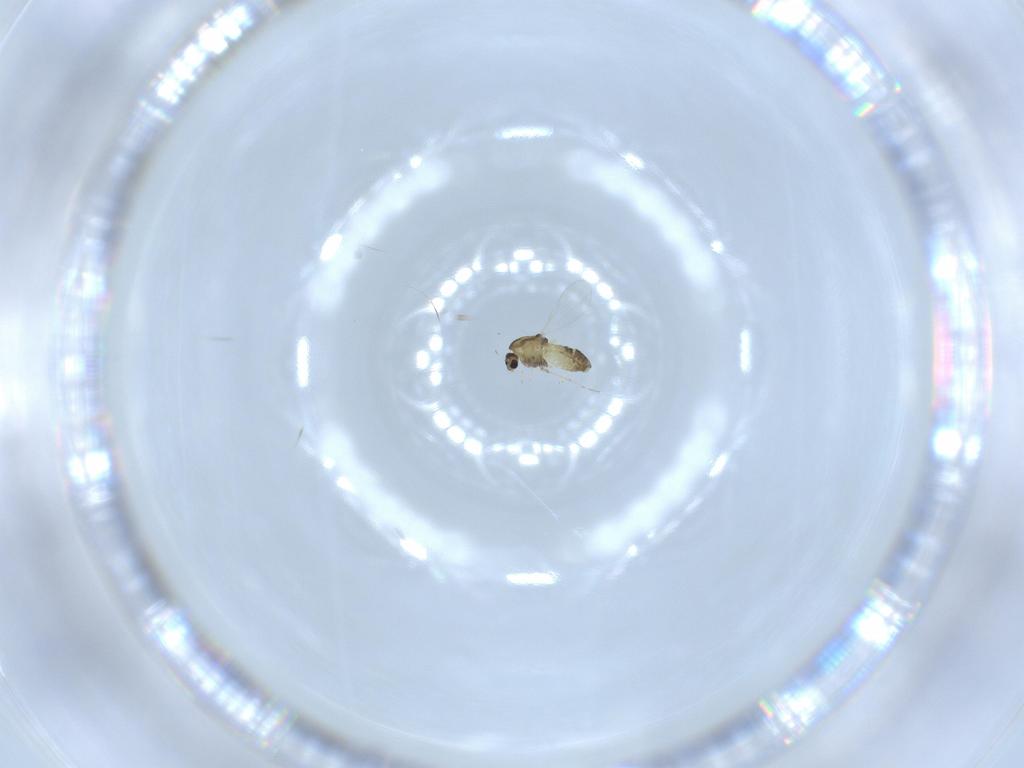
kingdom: Animalia
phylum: Arthropoda
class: Insecta
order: Diptera
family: Chironomidae
